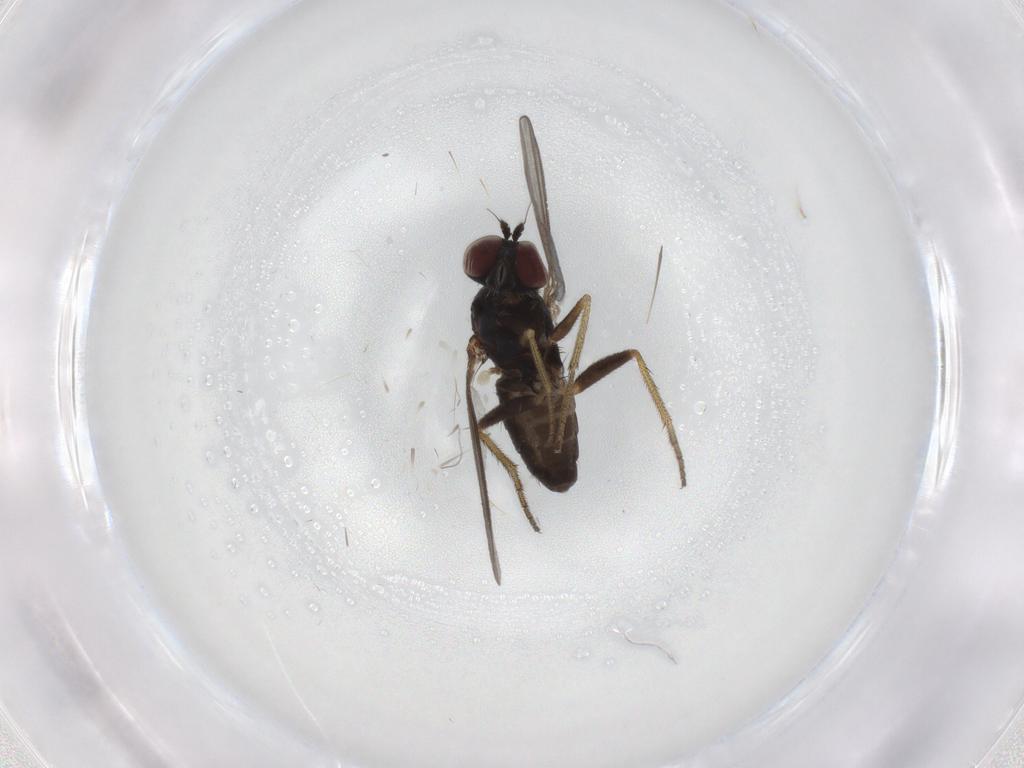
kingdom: Animalia
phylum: Arthropoda
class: Insecta
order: Diptera
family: Dolichopodidae
